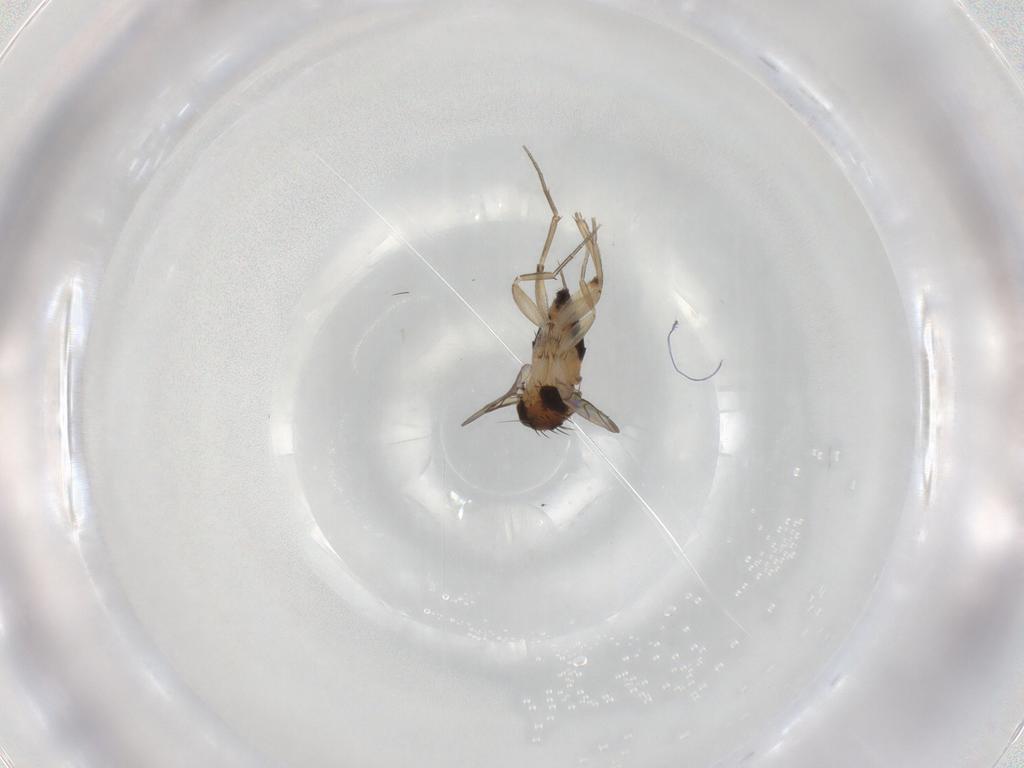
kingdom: Animalia
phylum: Arthropoda
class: Insecta
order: Diptera
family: Phoridae
